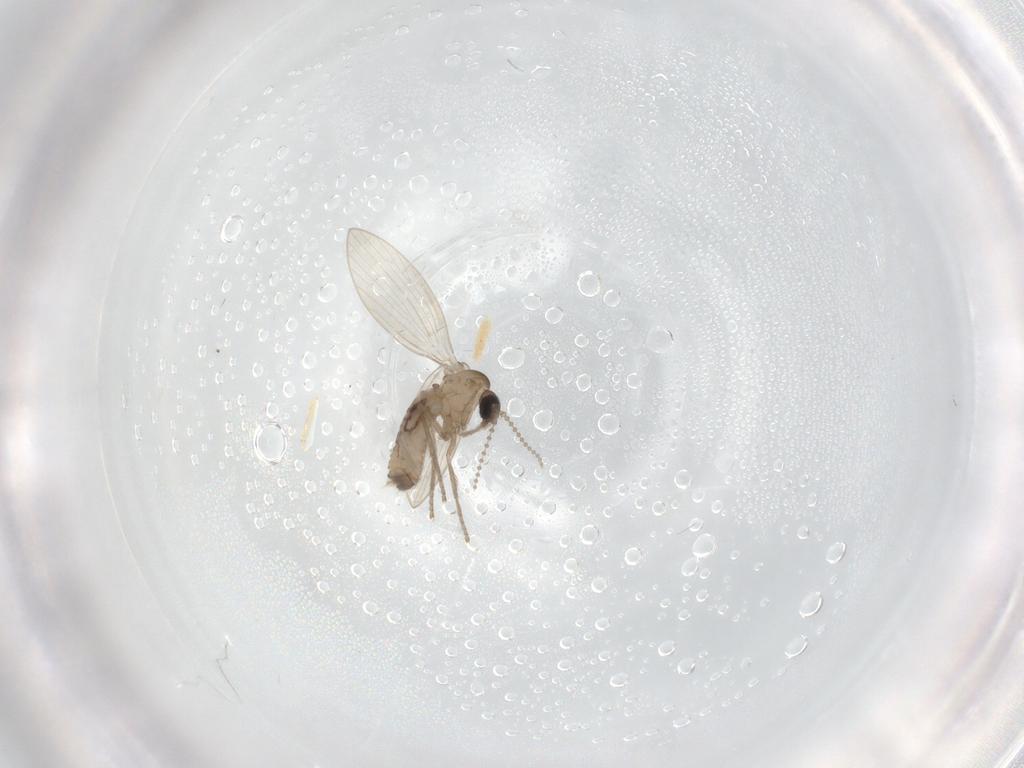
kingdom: Animalia
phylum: Arthropoda
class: Insecta
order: Diptera
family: Psychodidae
